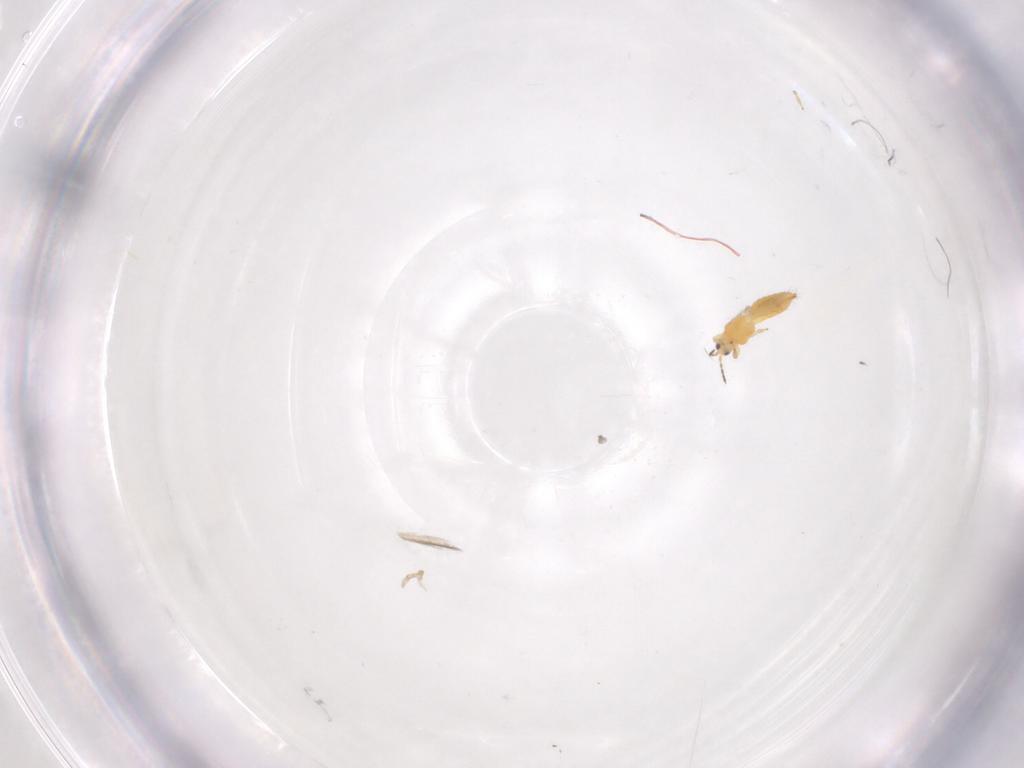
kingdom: Animalia
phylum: Arthropoda
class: Insecta
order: Thysanoptera
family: Thripidae
